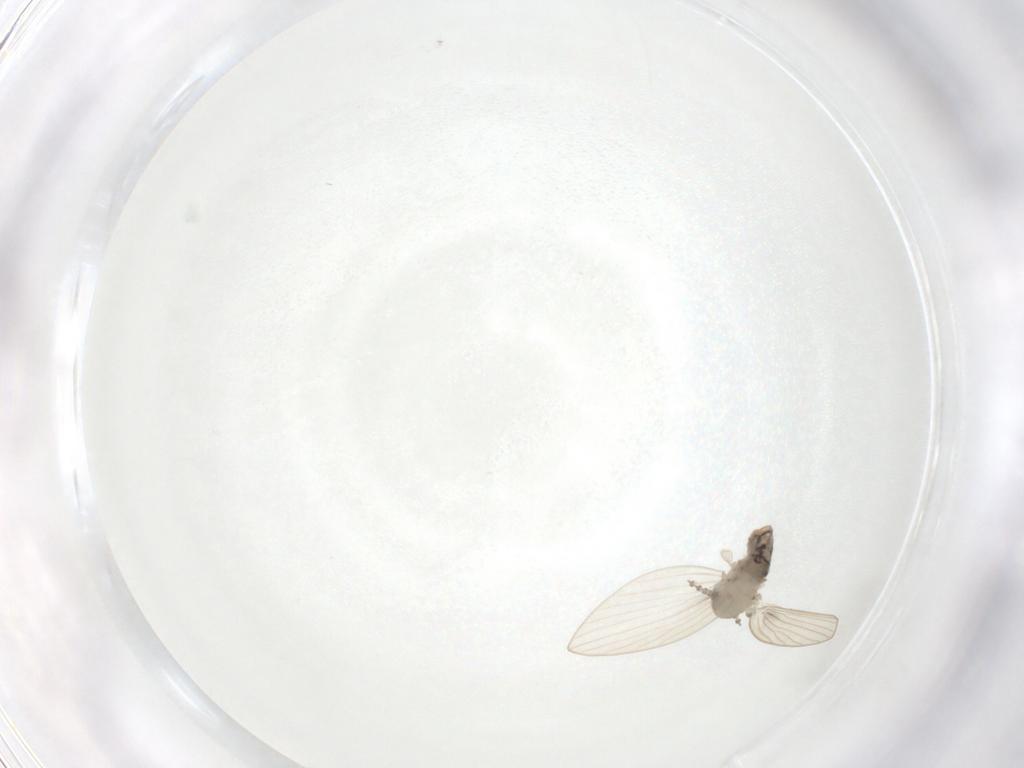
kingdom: Animalia
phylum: Arthropoda
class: Insecta
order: Diptera
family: Psychodidae
